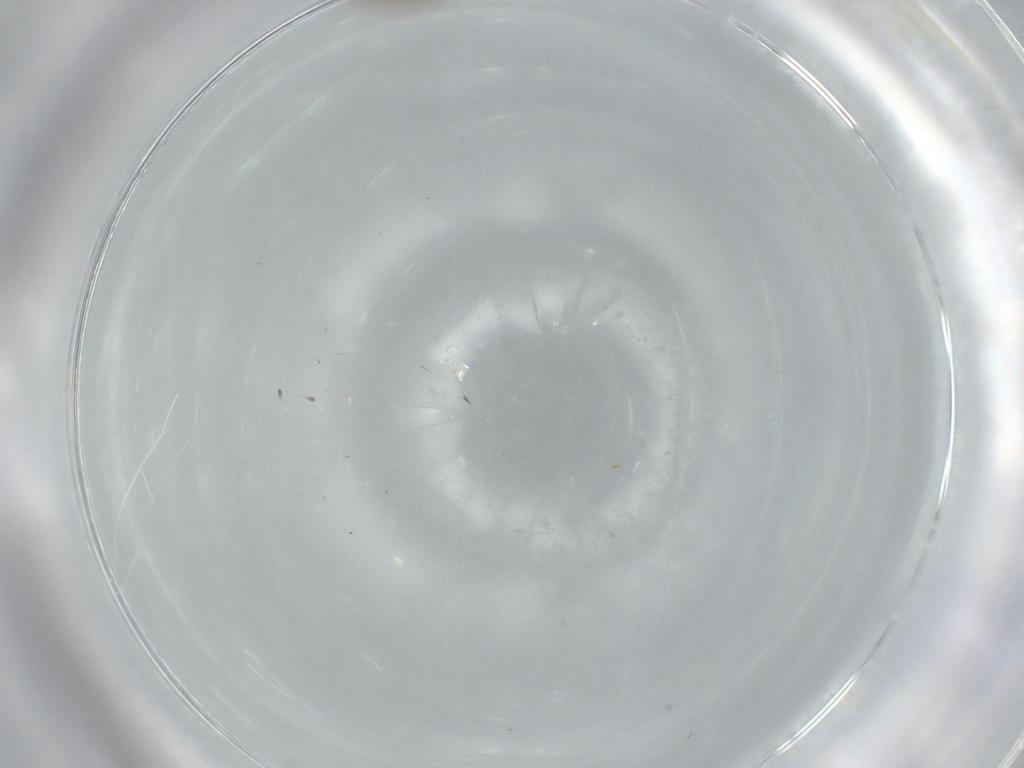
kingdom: Animalia
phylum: Arthropoda
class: Insecta
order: Diptera
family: Cecidomyiidae
